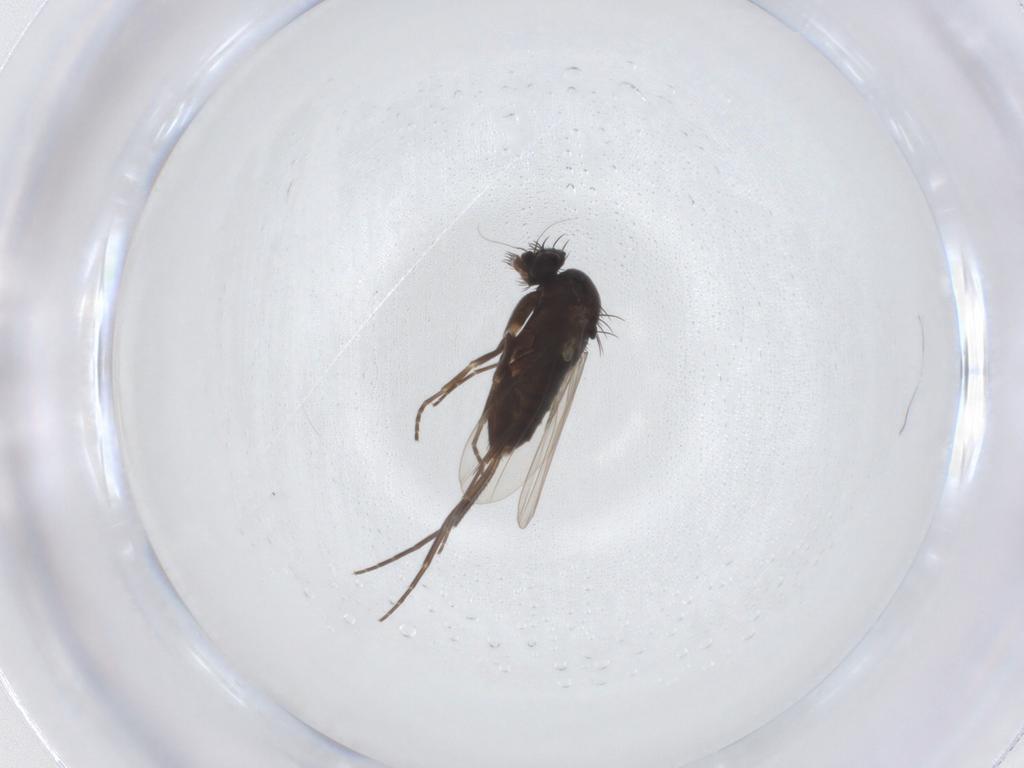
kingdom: Animalia
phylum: Arthropoda
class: Insecta
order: Diptera
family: Phoridae
